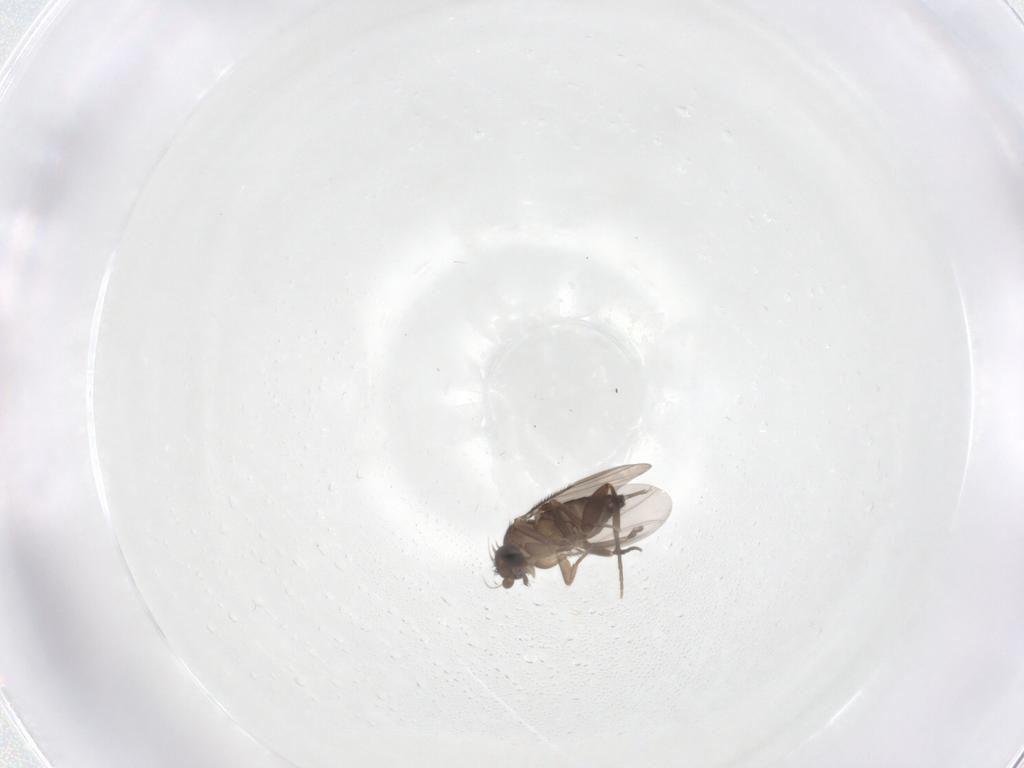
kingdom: Animalia
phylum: Arthropoda
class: Insecta
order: Diptera
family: Phoridae
